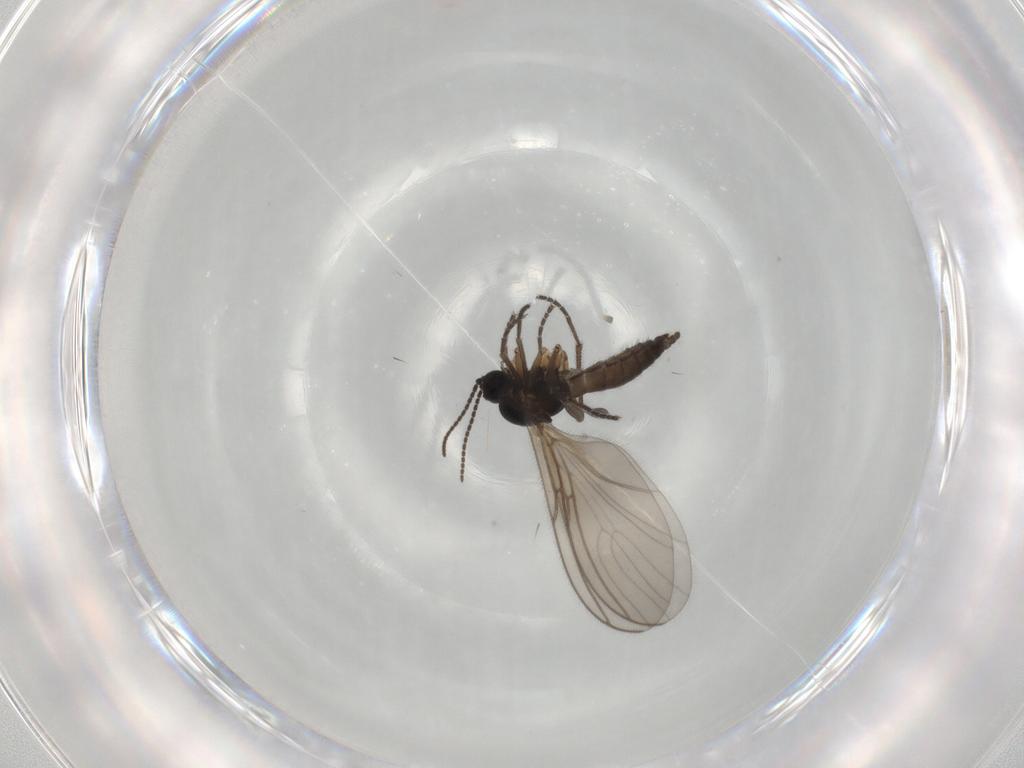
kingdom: Animalia
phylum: Arthropoda
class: Insecta
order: Diptera
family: Sciaridae
